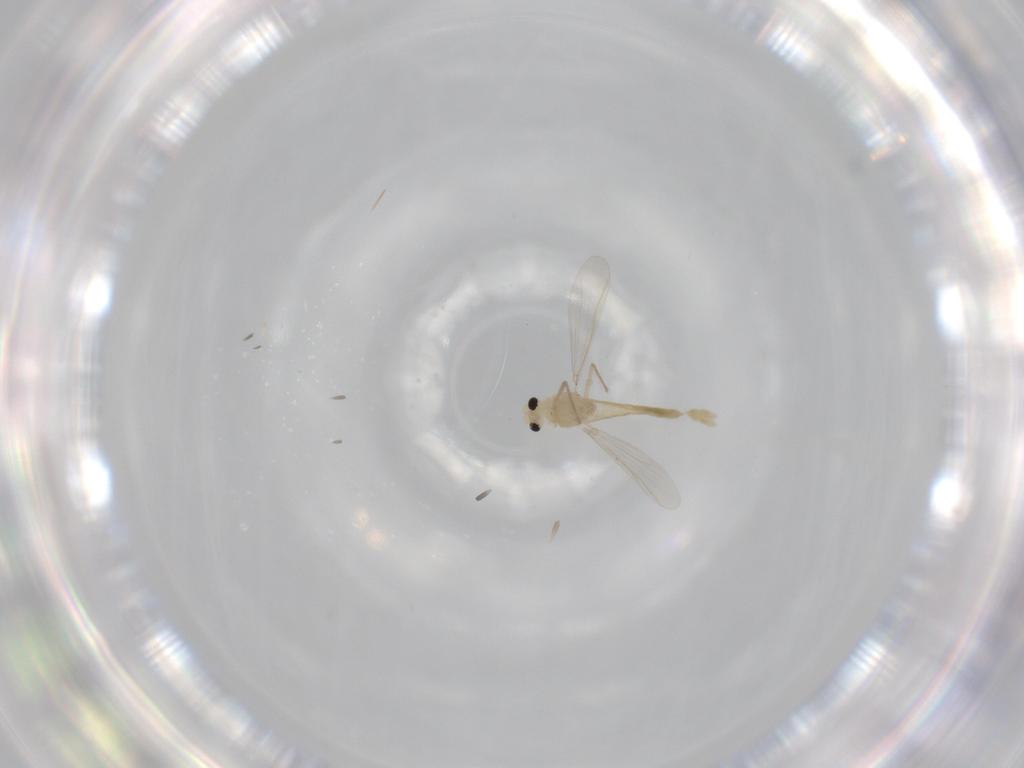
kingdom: Animalia
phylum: Arthropoda
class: Insecta
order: Diptera
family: Chironomidae
